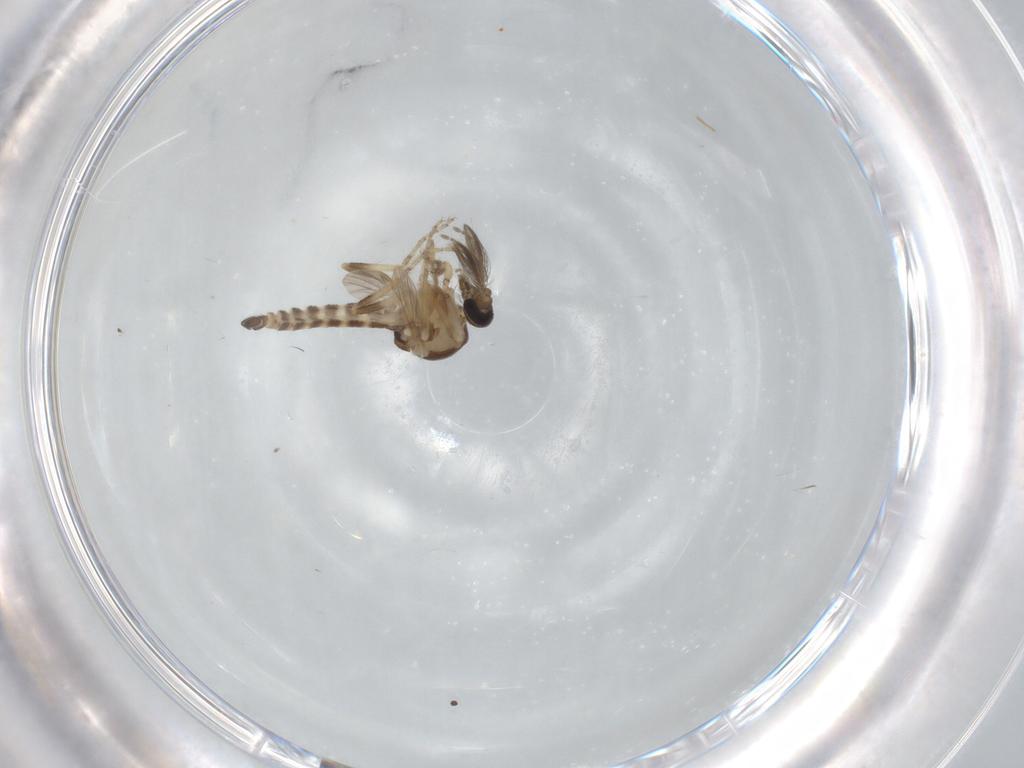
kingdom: Animalia
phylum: Arthropoda
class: Insecta
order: Diptera
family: Ceratopogonidae
